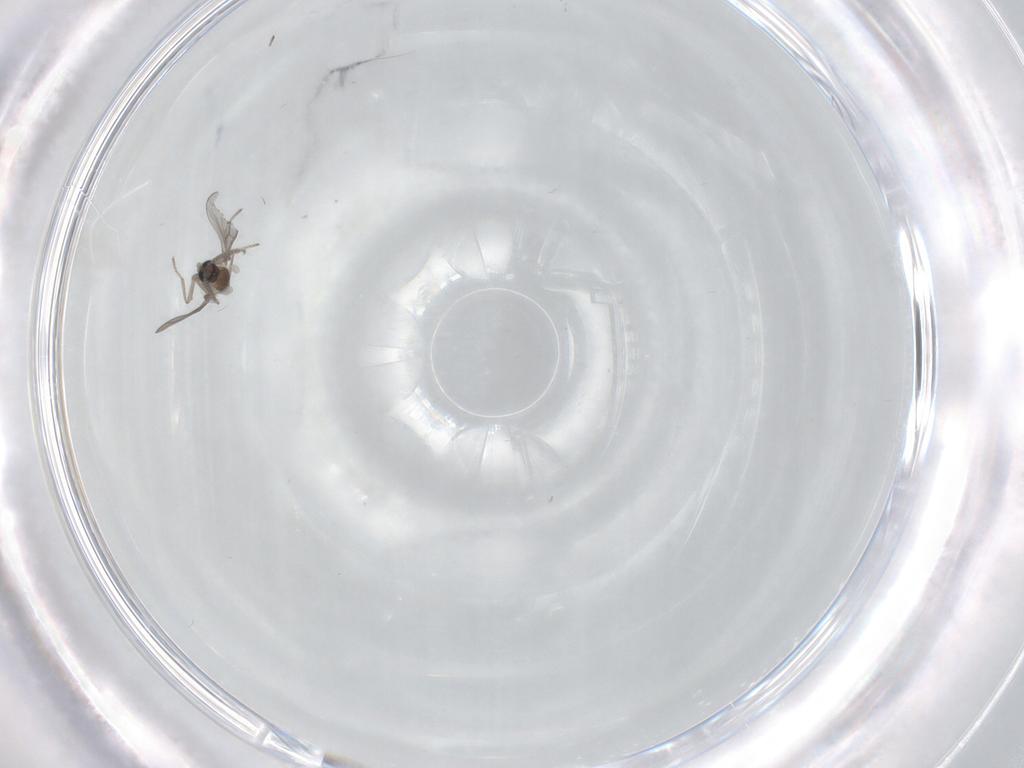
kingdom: Animalia
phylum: Arthropoda
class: Insecta
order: Diptera
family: Cecidomyiidae
